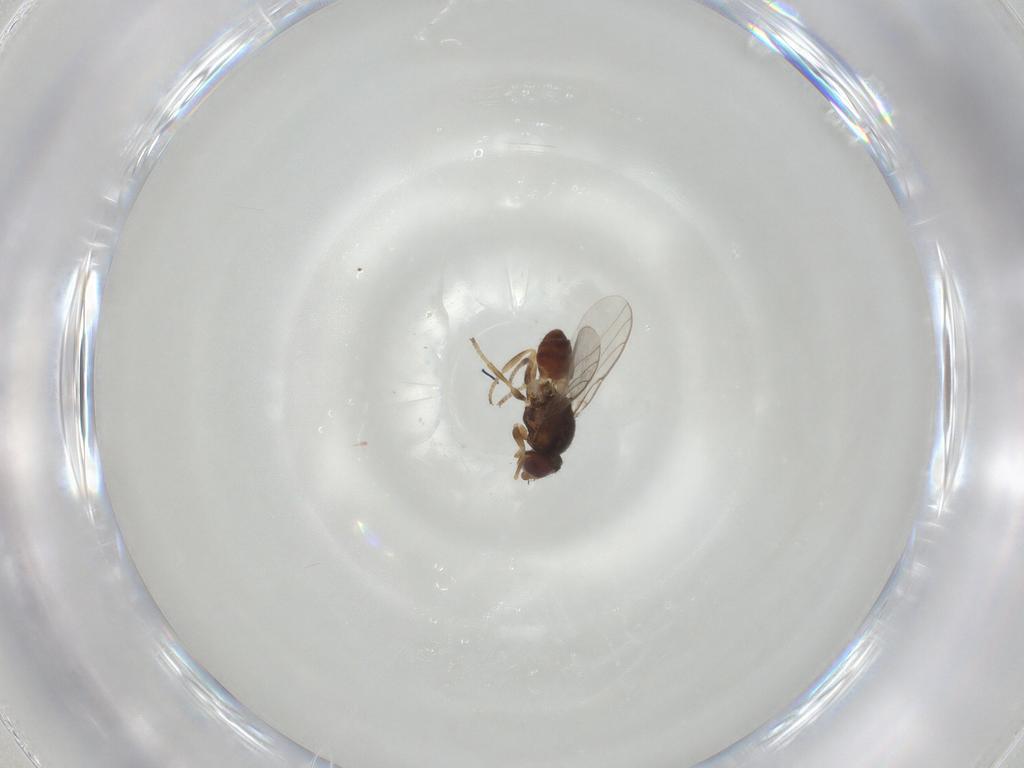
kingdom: Animalia
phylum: Arthropoda
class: Insecta
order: Diptera
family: Chloropidae
